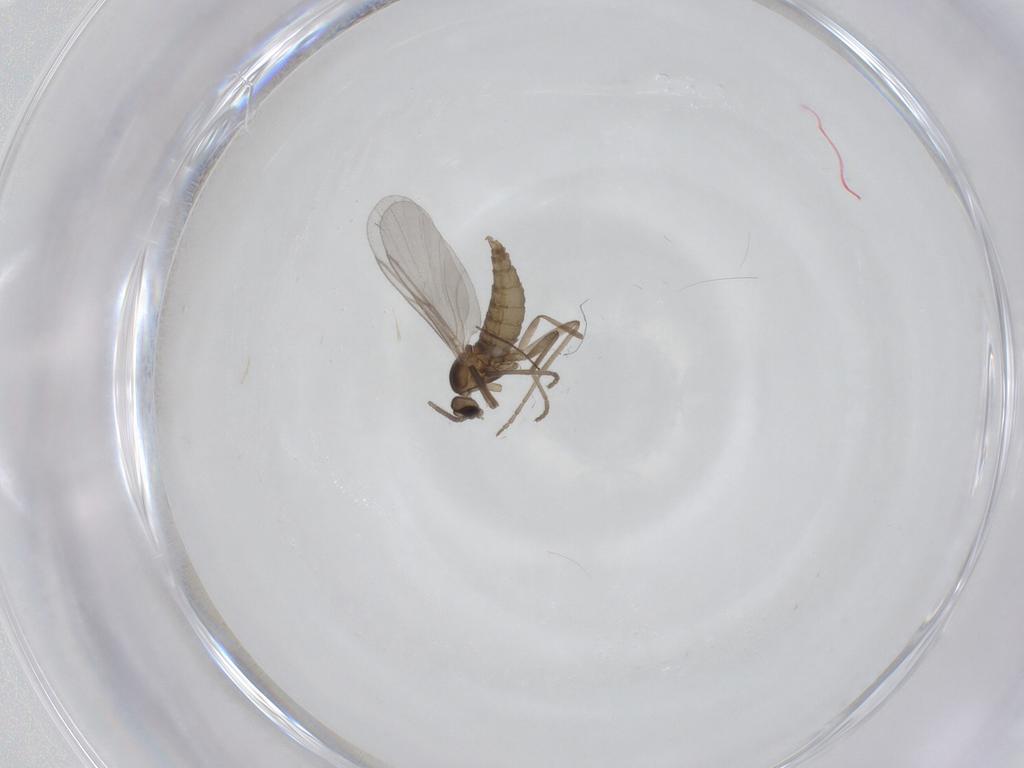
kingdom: Animalia
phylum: Arthropoda
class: Insecta
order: Diptera
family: Cecidomyiidae
